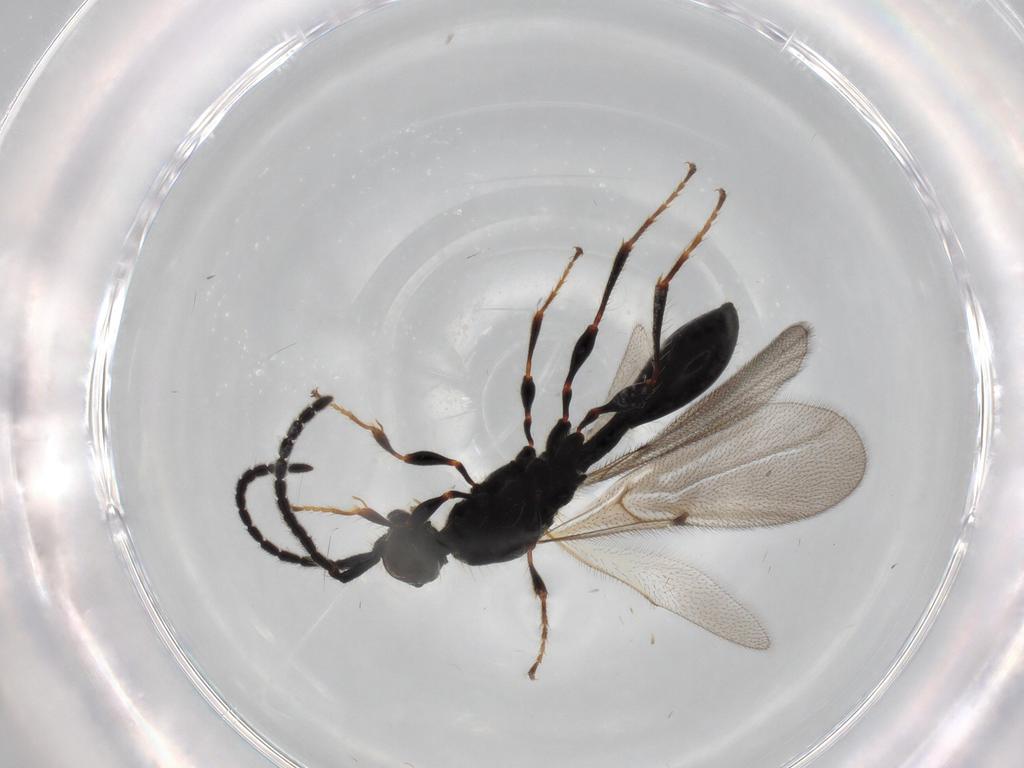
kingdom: Animalia
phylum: Arthropoda
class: Insecta
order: Hymenoptera
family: Diapriidae
